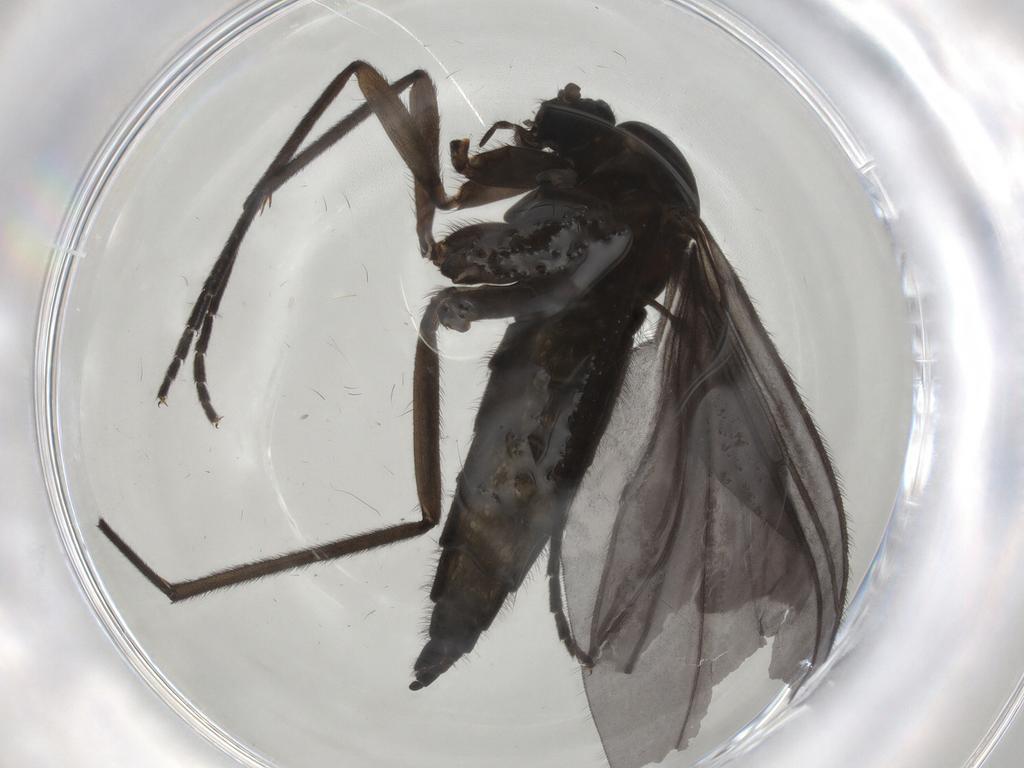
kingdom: Animalia
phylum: Arthropoda
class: Insecta
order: Diptera
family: Sciaridae
